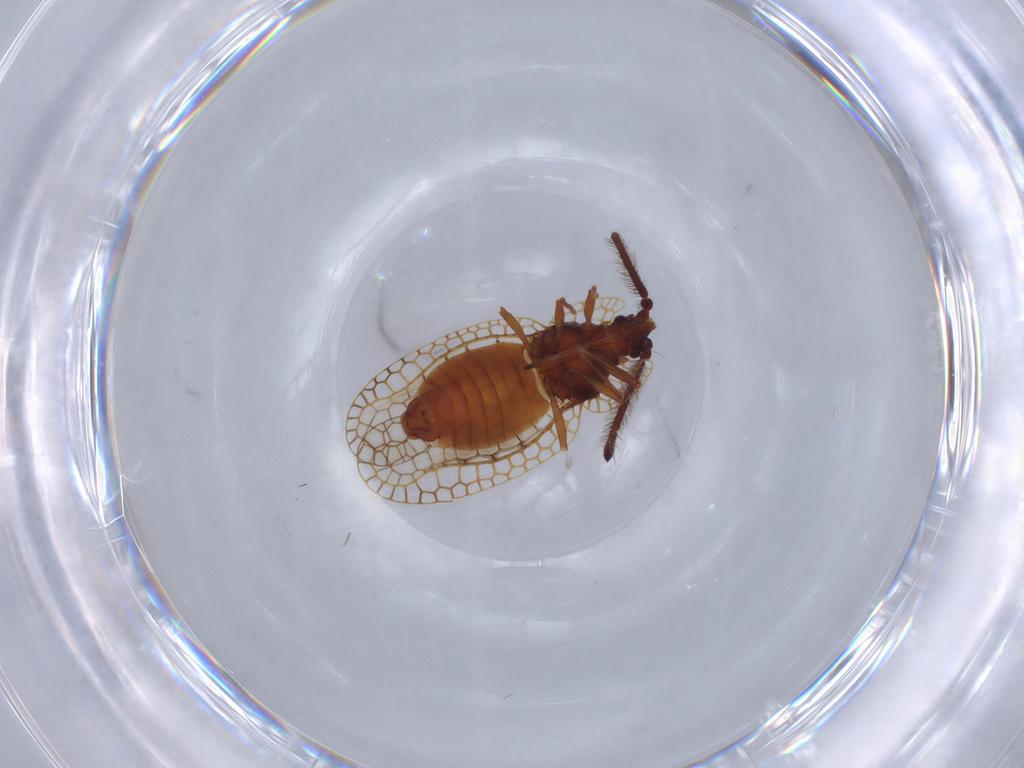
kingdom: Animalia
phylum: Arthropoda
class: Insecta
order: Hemiptera
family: Tingidae
